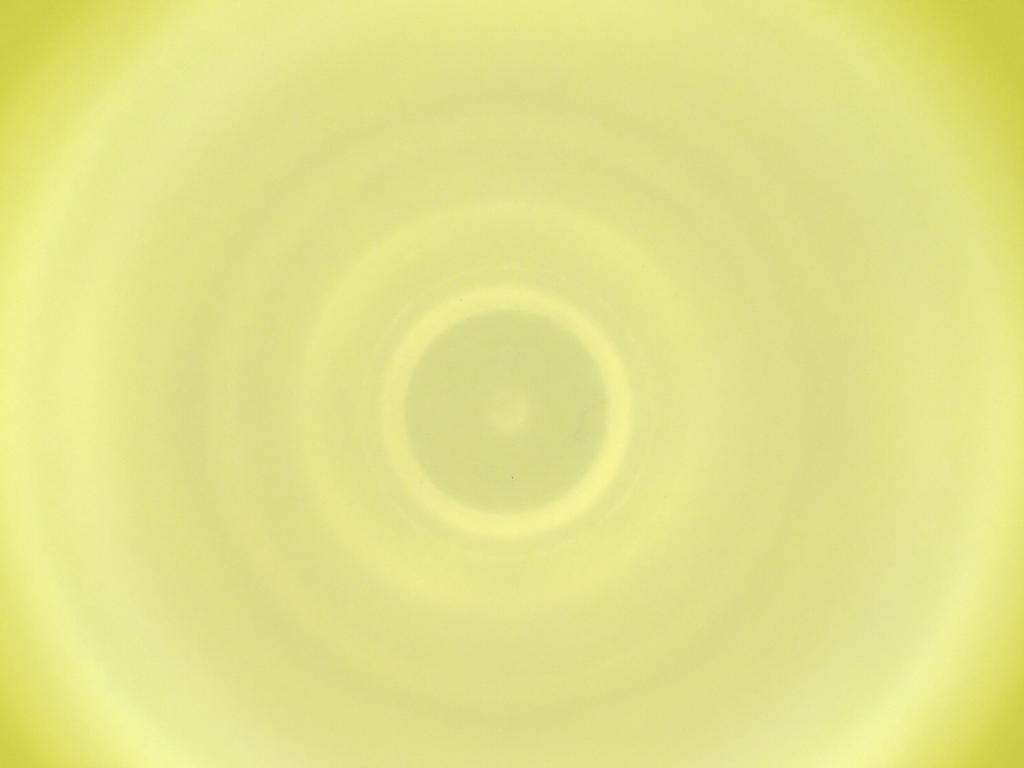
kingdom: Animalia
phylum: Arthropoda
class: Insecta
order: Diptera
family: Cecidomyiidae
